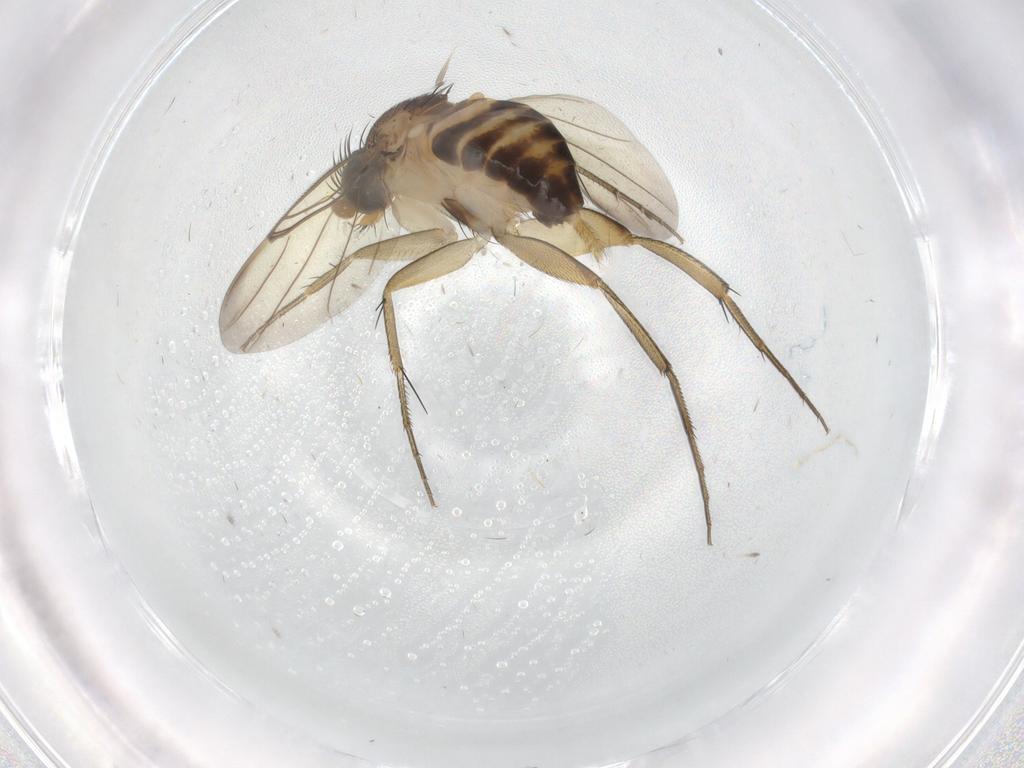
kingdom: Animalia
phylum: Arthropoda
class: Insecta
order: Diptera
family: Phoridae
